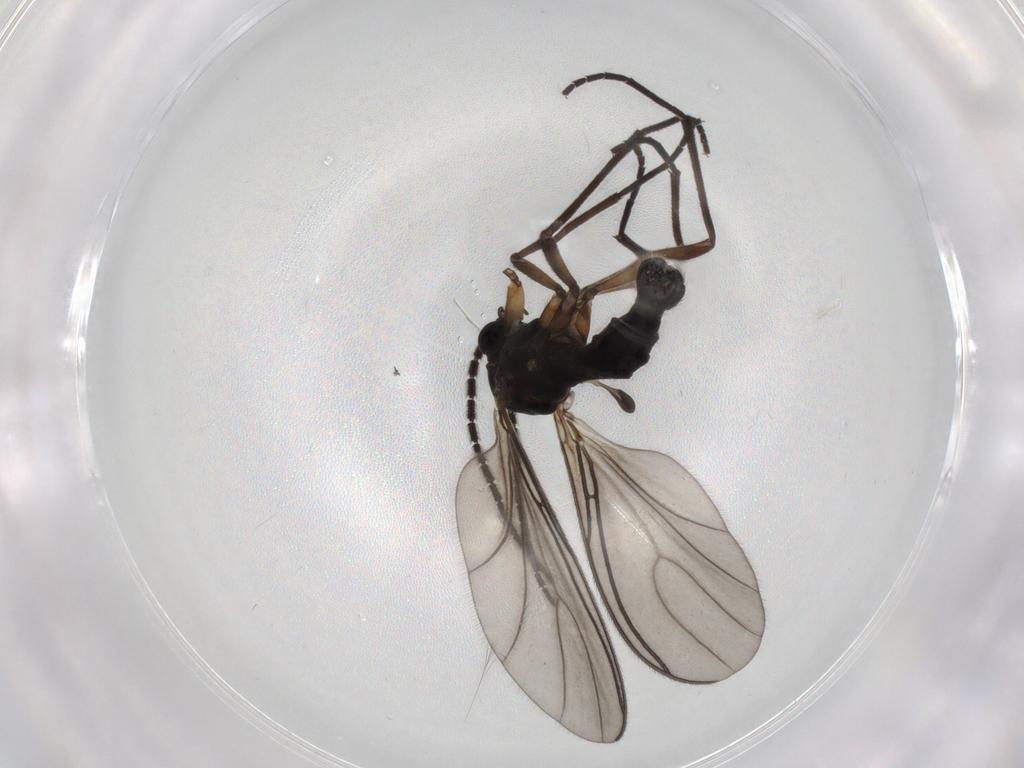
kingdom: Animalia
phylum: Arthropoda
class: Insecta
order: Diptera
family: Sciaridae
